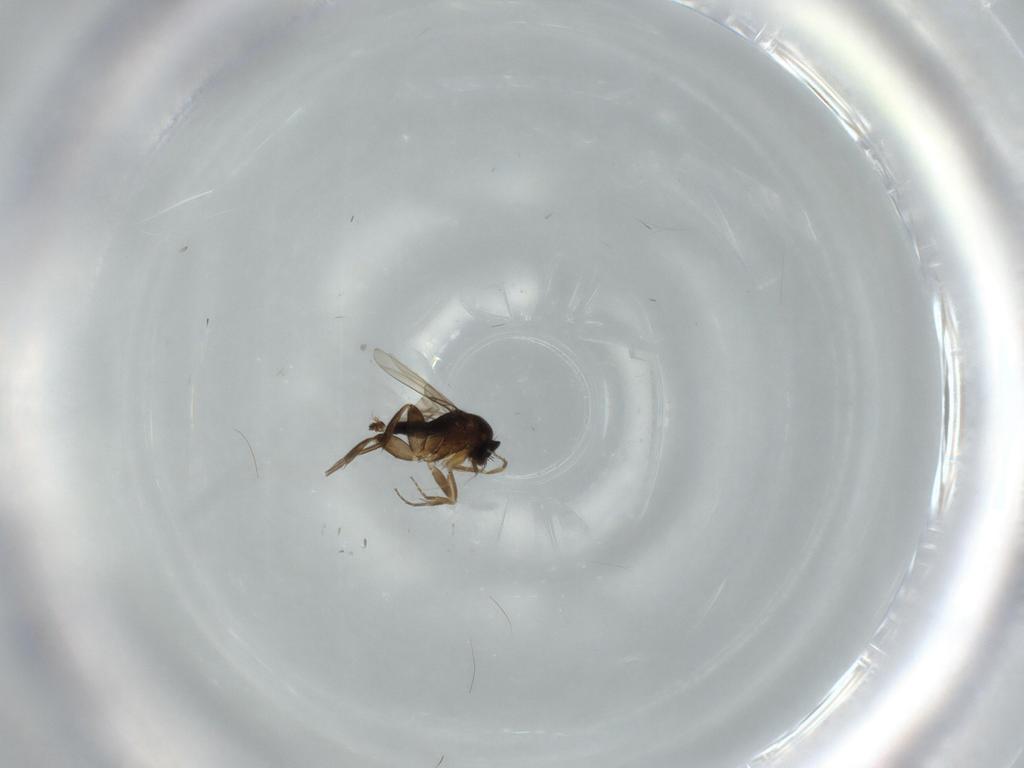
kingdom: Animalia
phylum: Arthropoda
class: Insecta
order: Diptera
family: Phoridae
